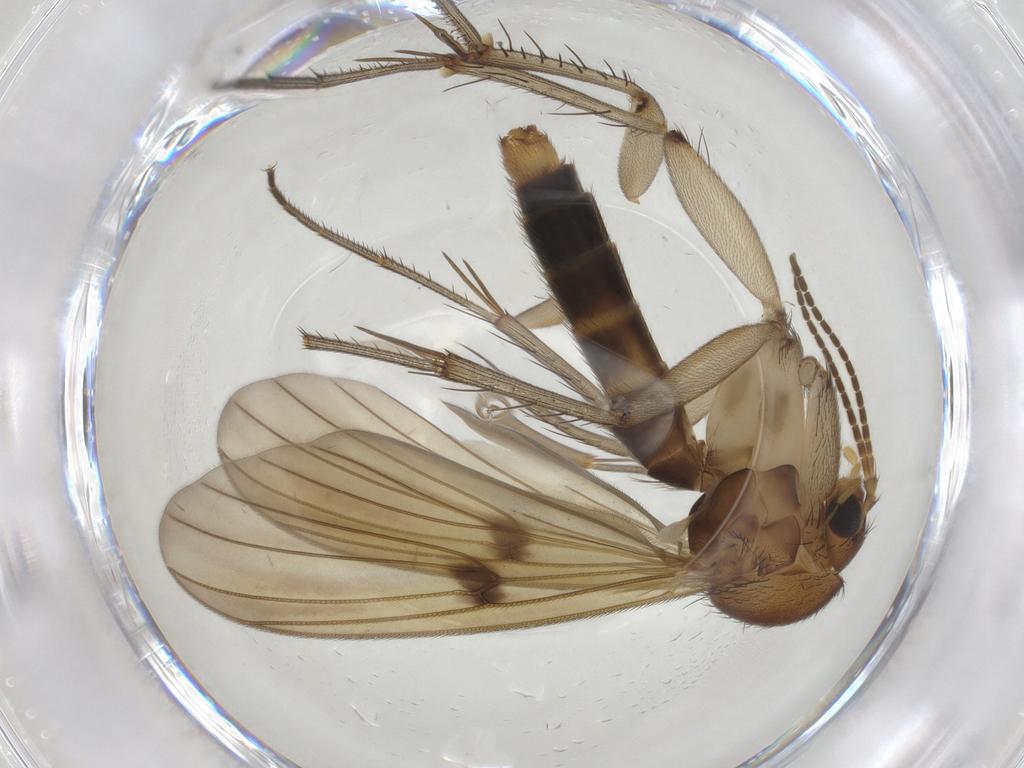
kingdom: Animalia
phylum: Arthropoda
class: Insecta
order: Diptera
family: Mycetophilidae
